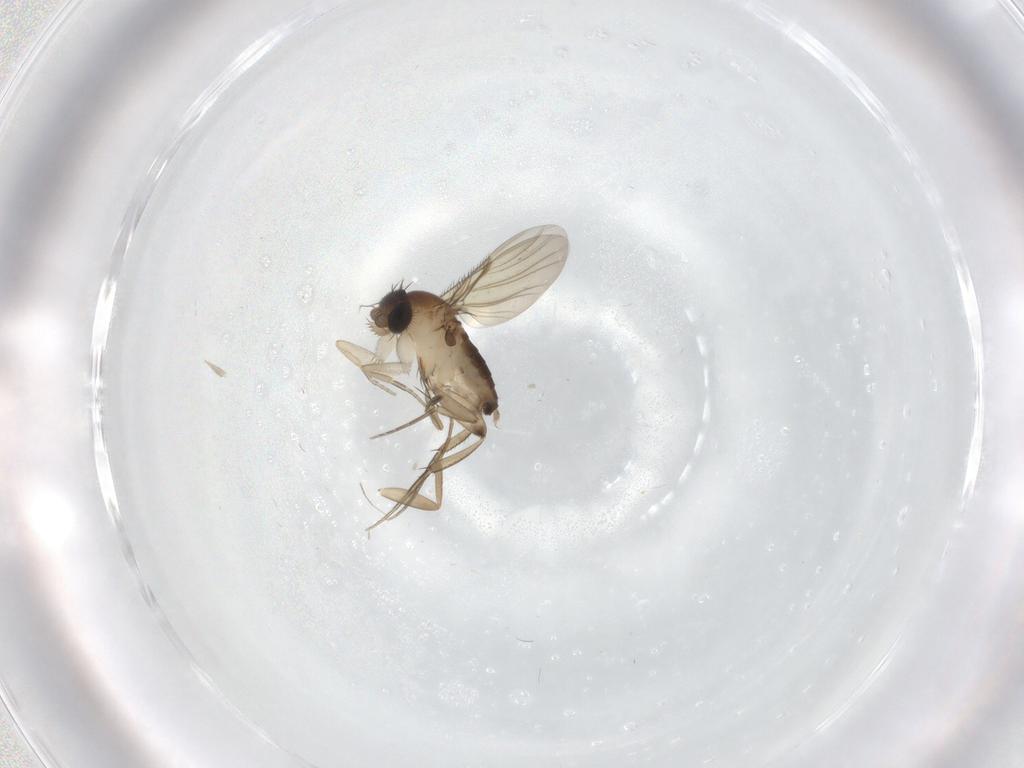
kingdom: Animalia
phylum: Arthropoda
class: Insecta
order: Diptera
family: Phoridae
